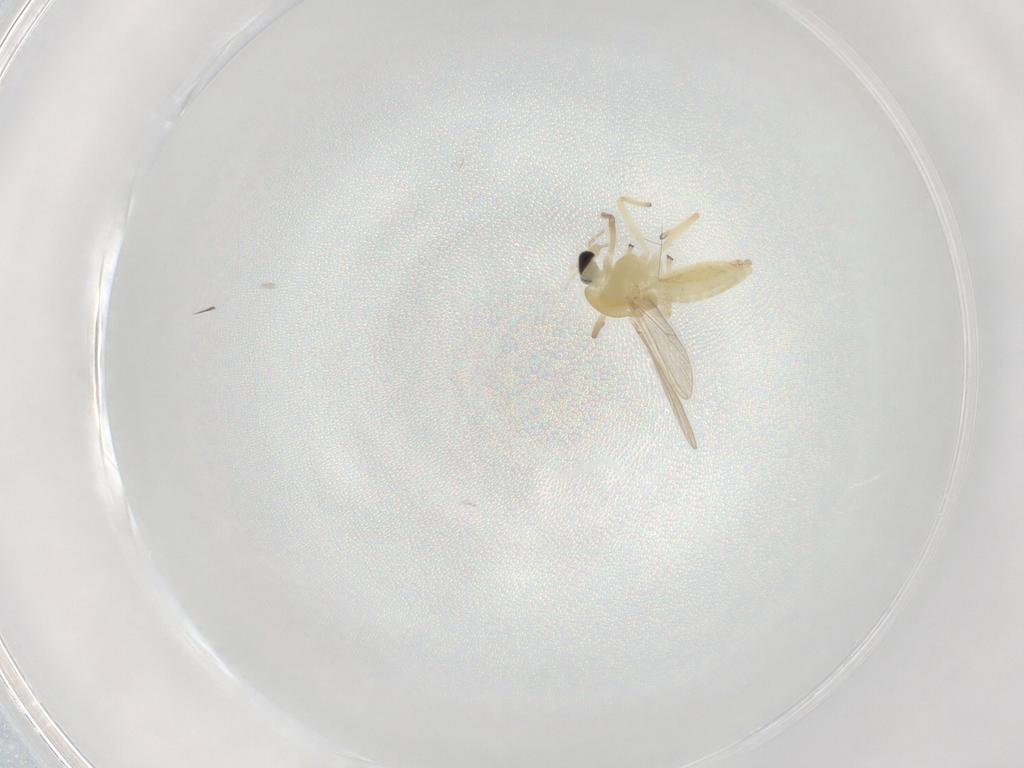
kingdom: Animalia
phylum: Arthropoda
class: Insecta
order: Diptera
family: Chironomidae
